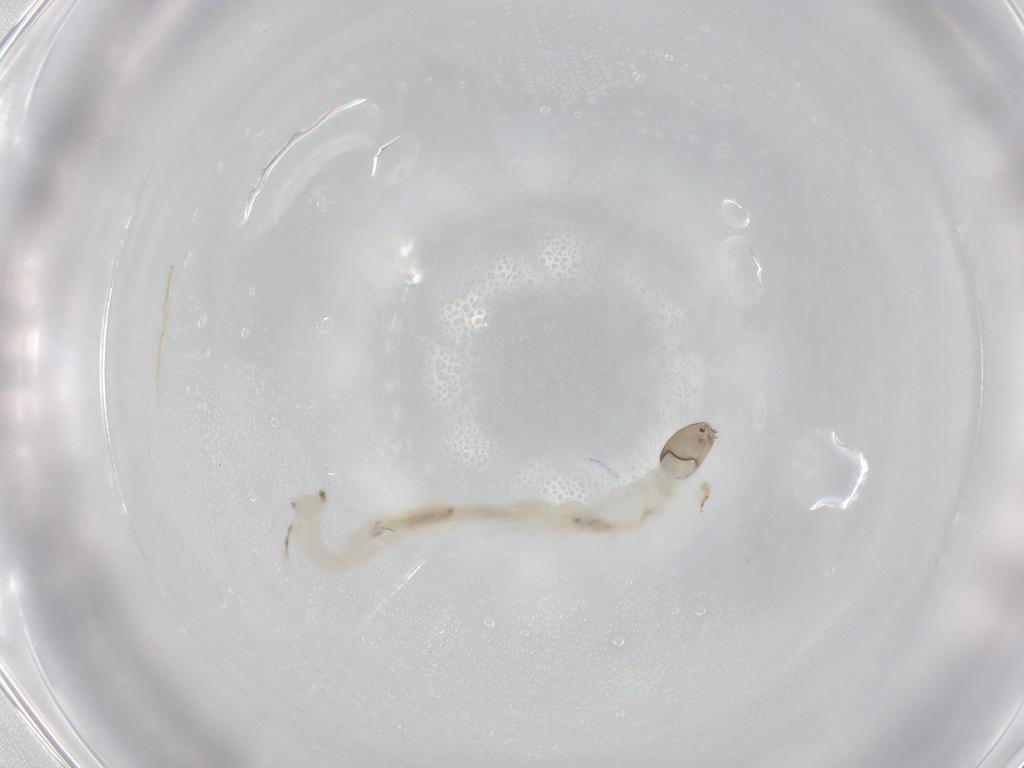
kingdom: Animalia
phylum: Arthropoda
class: Insecta
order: Diptera
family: Chironomidae
